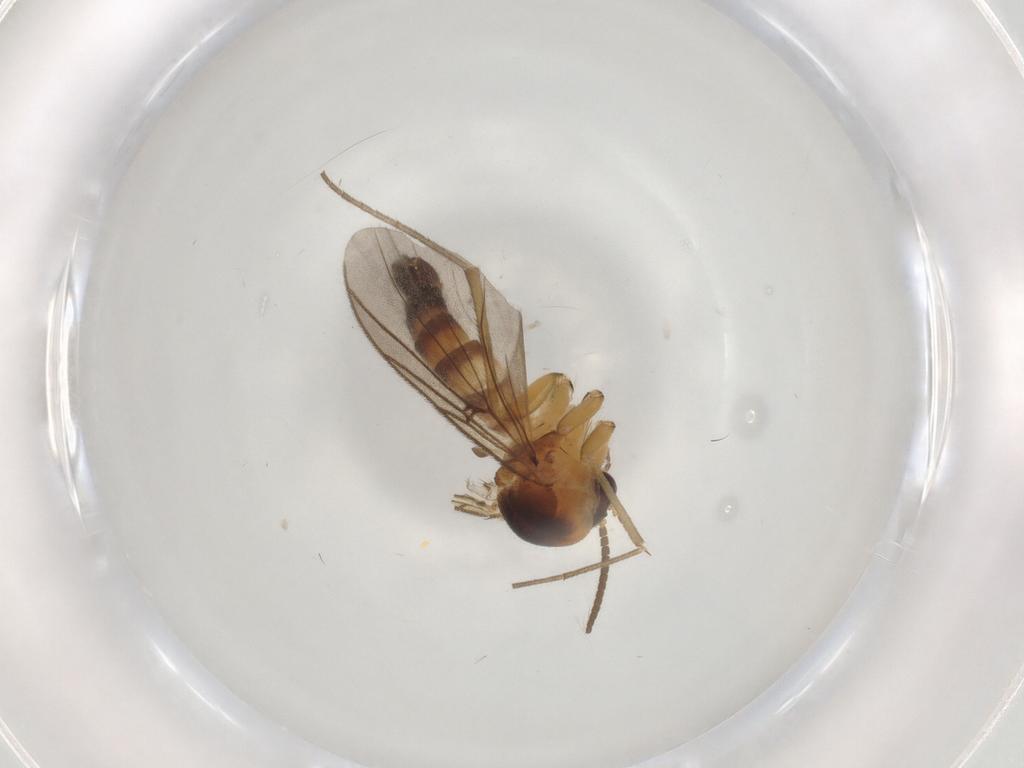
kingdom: Animalia
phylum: Arthropoda
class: Insecta
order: Diptera
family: Mycetophilidae
